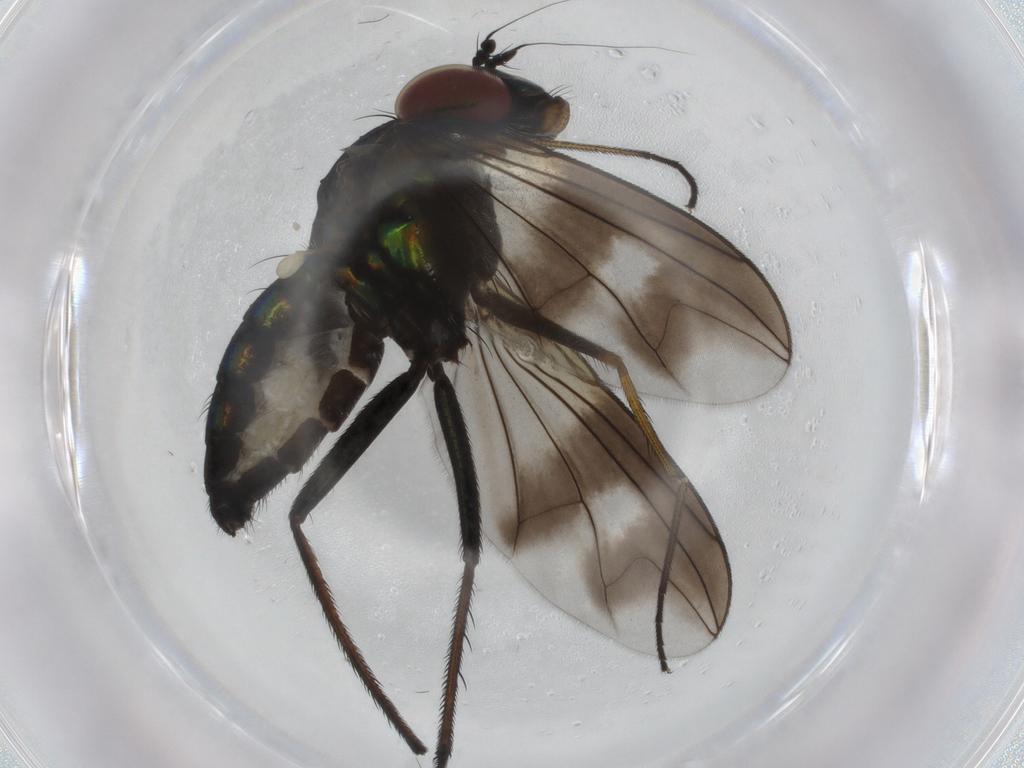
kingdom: Animalia
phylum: Arthropoda
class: Insecta
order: Diptera
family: Dolichopodidae
